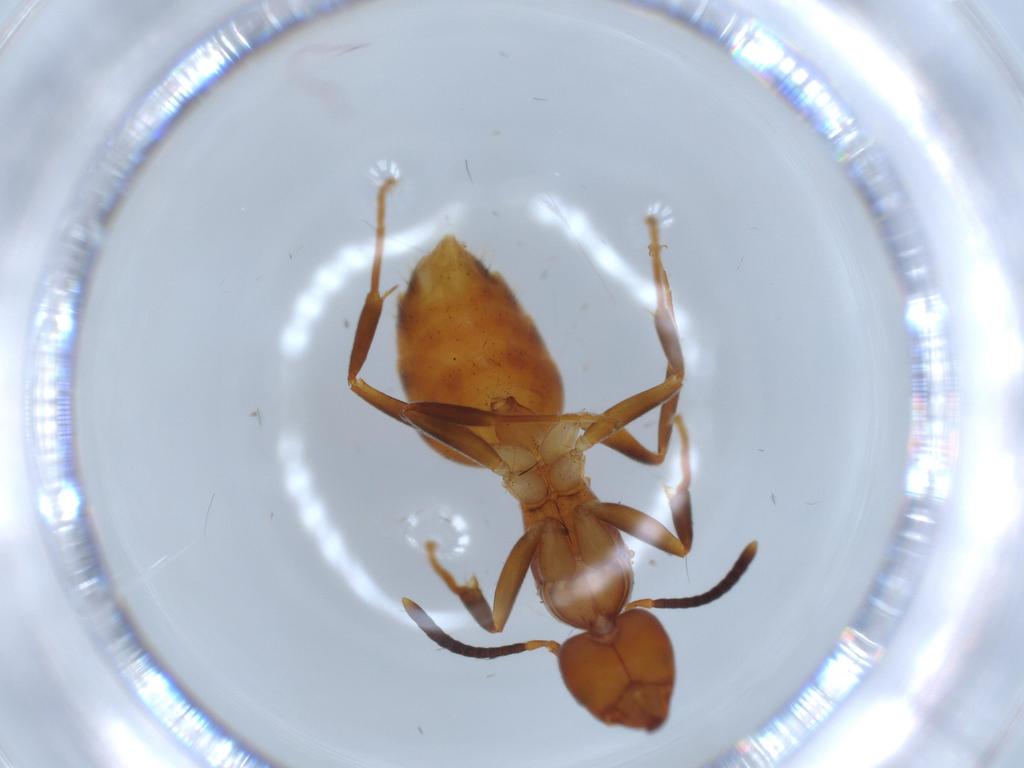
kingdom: Animalia
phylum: Arthropoda
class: Insecta
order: Hymenoptera
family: Formicidae
